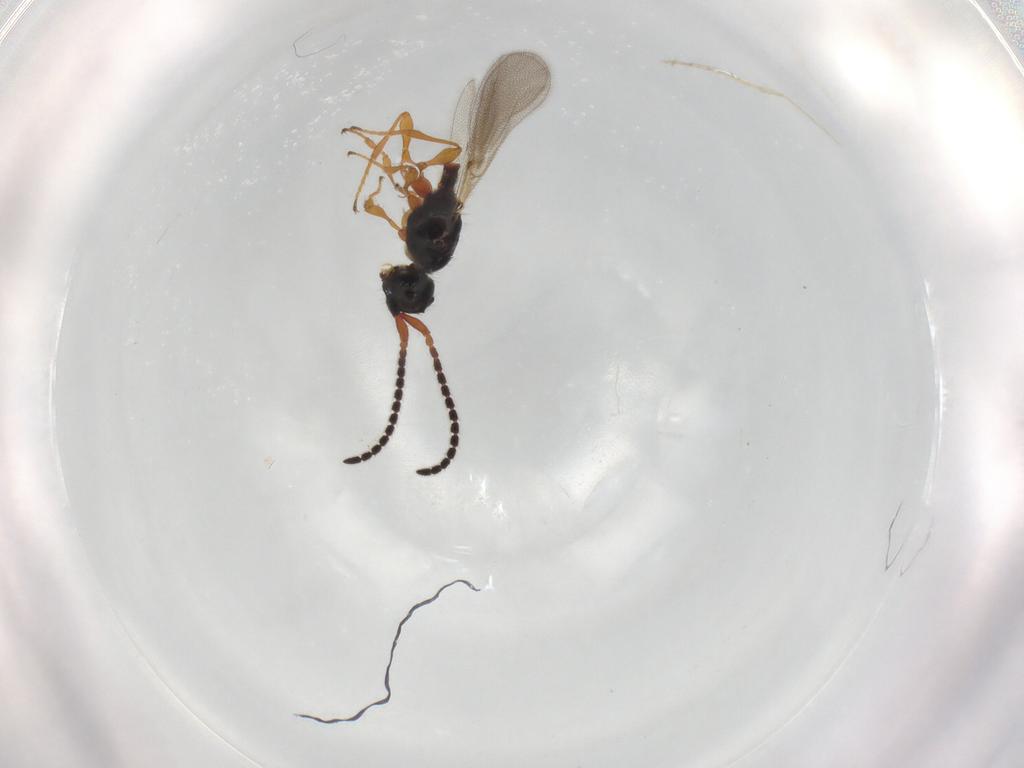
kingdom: Animalia
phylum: Arthropoda
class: Insecta
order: Hymenoptera
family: Diapriidae
